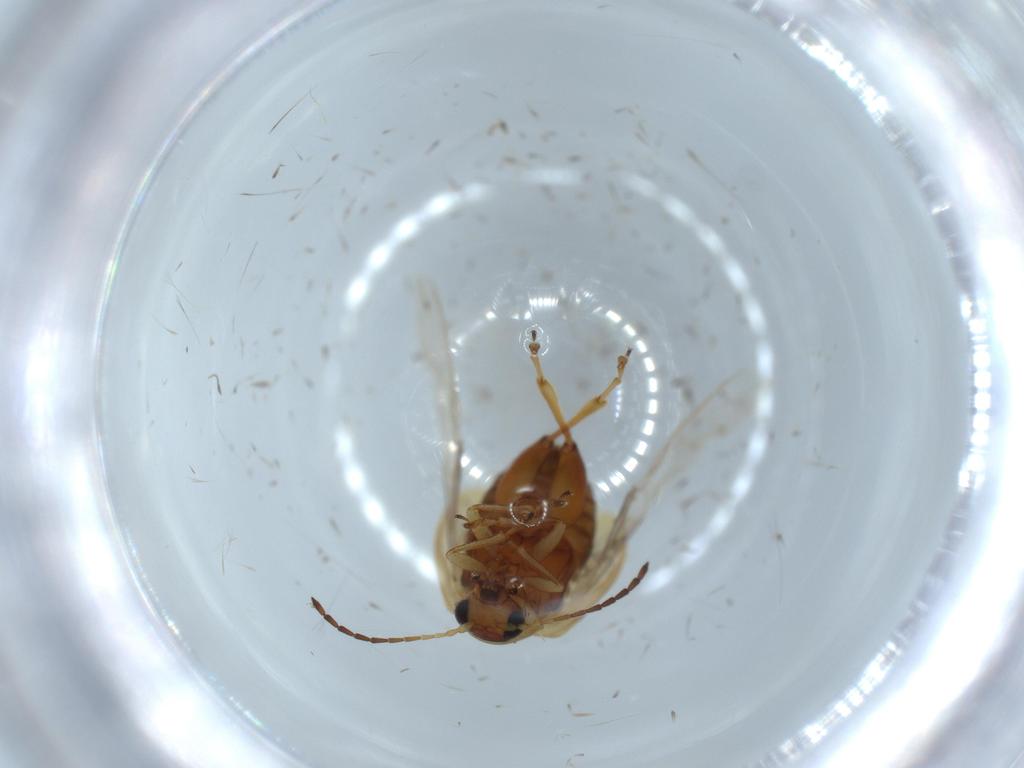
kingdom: Animalia
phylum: Arthropoda
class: Insecta
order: Coleoptera
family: Chrysomelidae
